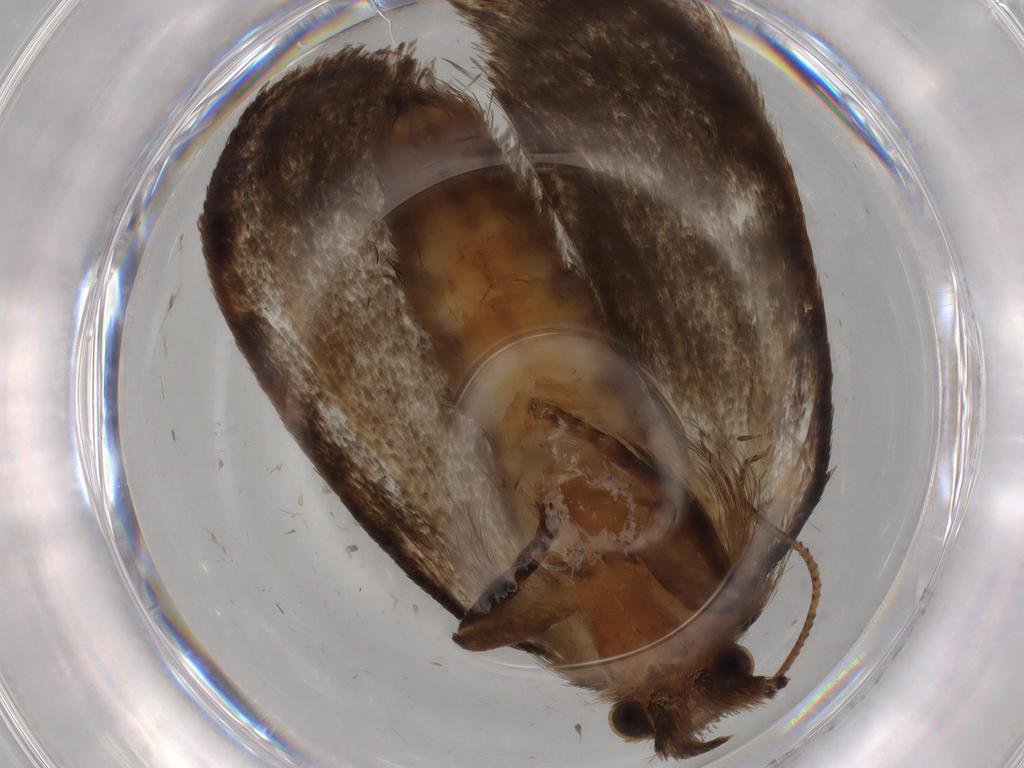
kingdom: Animalia
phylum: Arthropoda
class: Insecta
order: Lepidoptera
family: Tineidae
